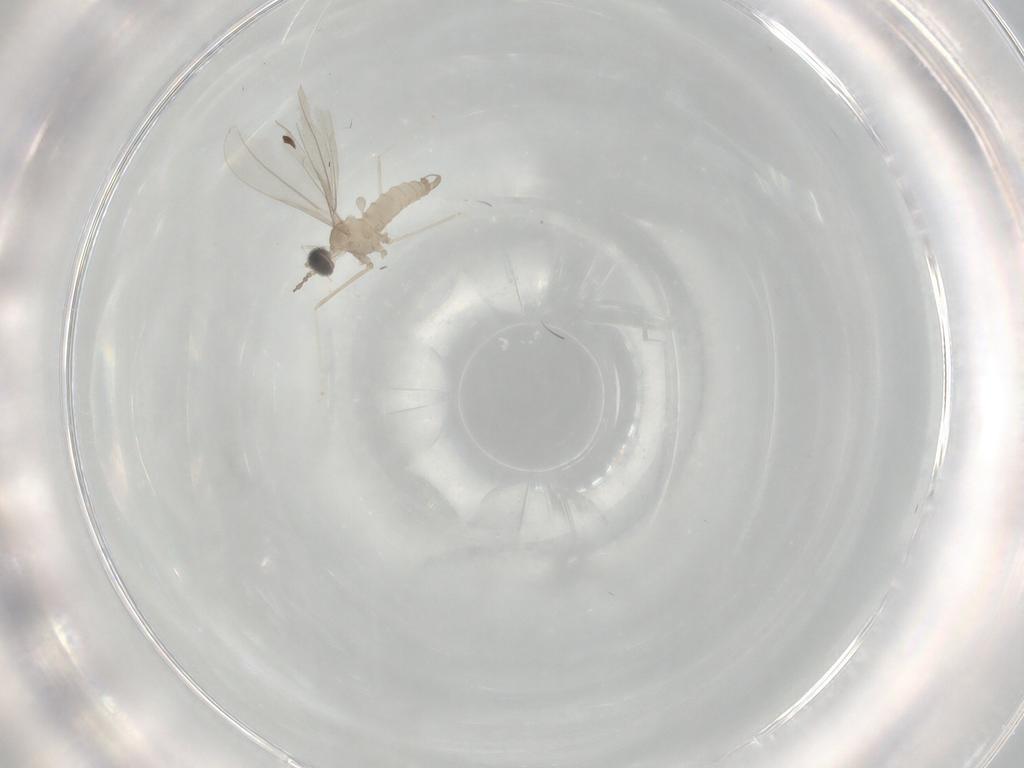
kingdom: Animalia
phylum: Arthropoda
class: Insecta
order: Diptera
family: Cecidomyiidae
